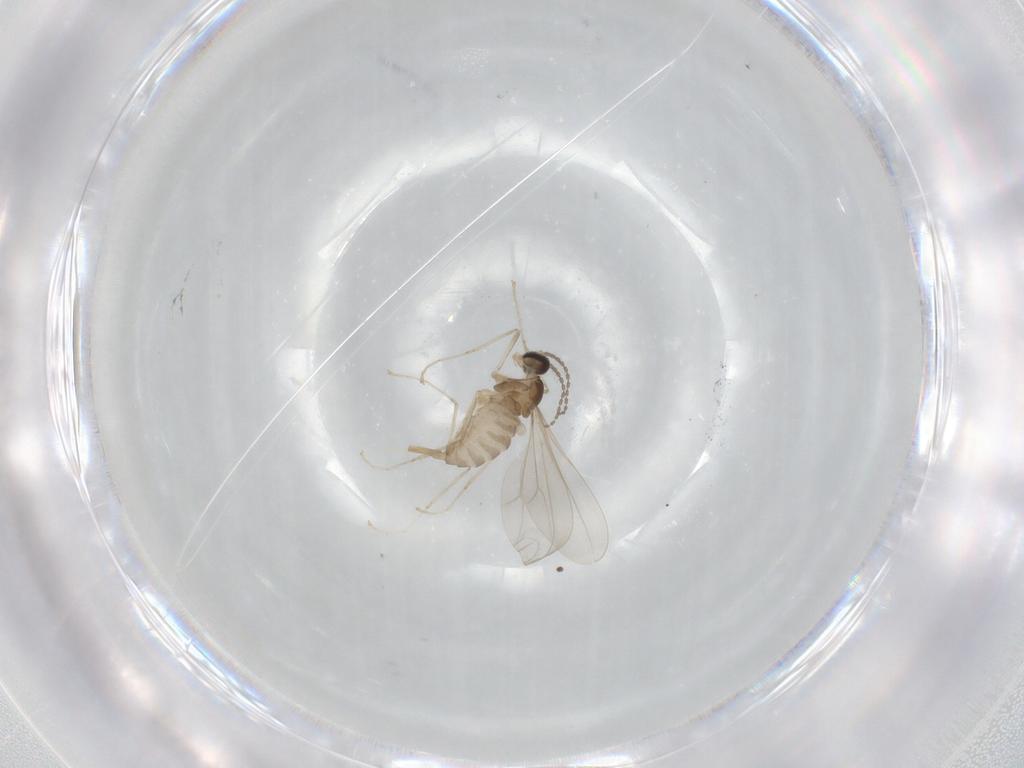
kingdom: Animalia
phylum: Arthropoda
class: Insecta
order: Diptera
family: Cecidomyiidae
